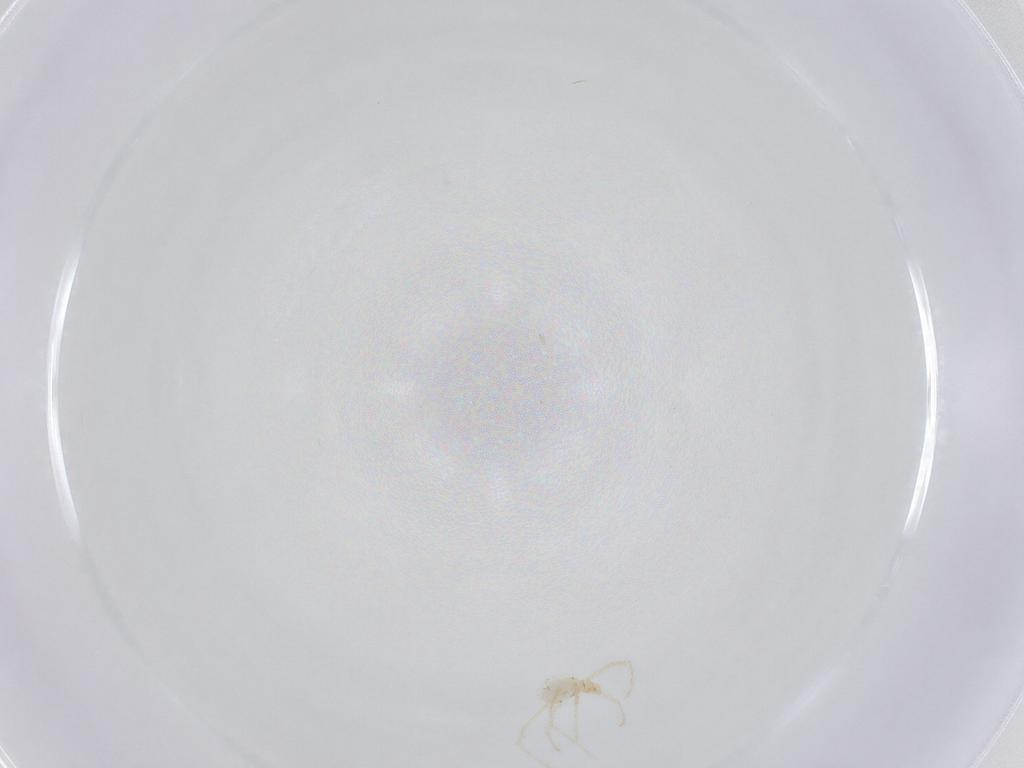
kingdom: Animalia
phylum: Arthropoda
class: Arachnida
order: Trombidiformes
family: Erythraeidae
